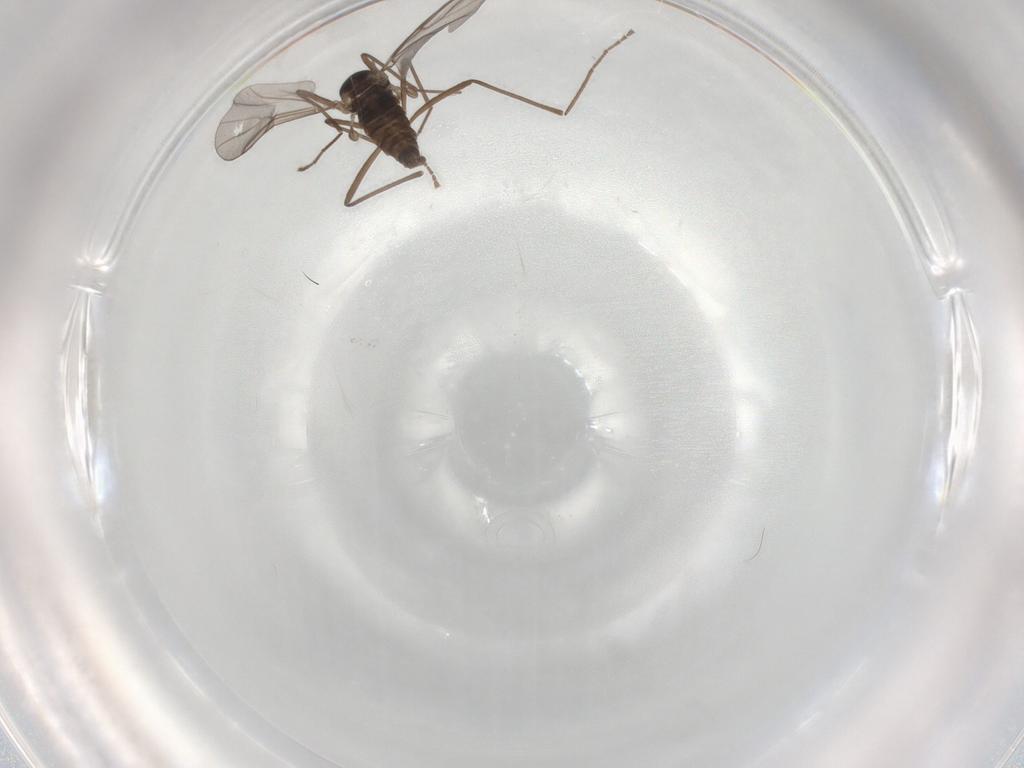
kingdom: Animalia
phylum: Arthropoda
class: Insecta
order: Diptera
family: Cecidomyiidae
